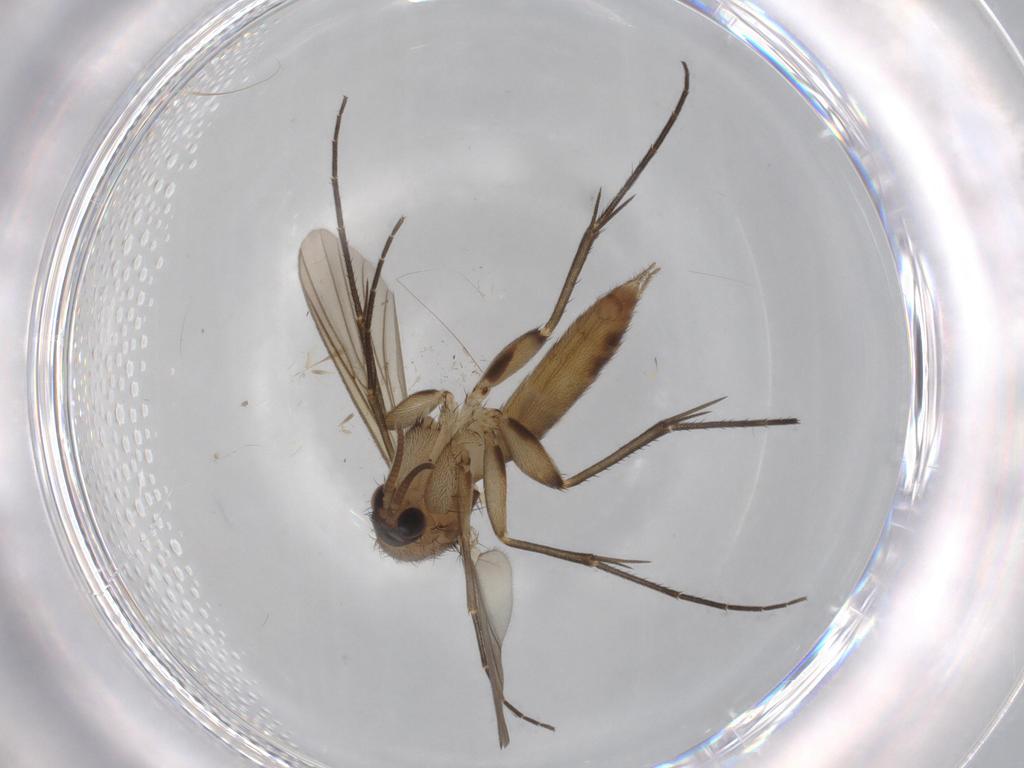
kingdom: Animalia
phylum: Arthropoda
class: Insecta
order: Diptera
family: Mycetophilidae
